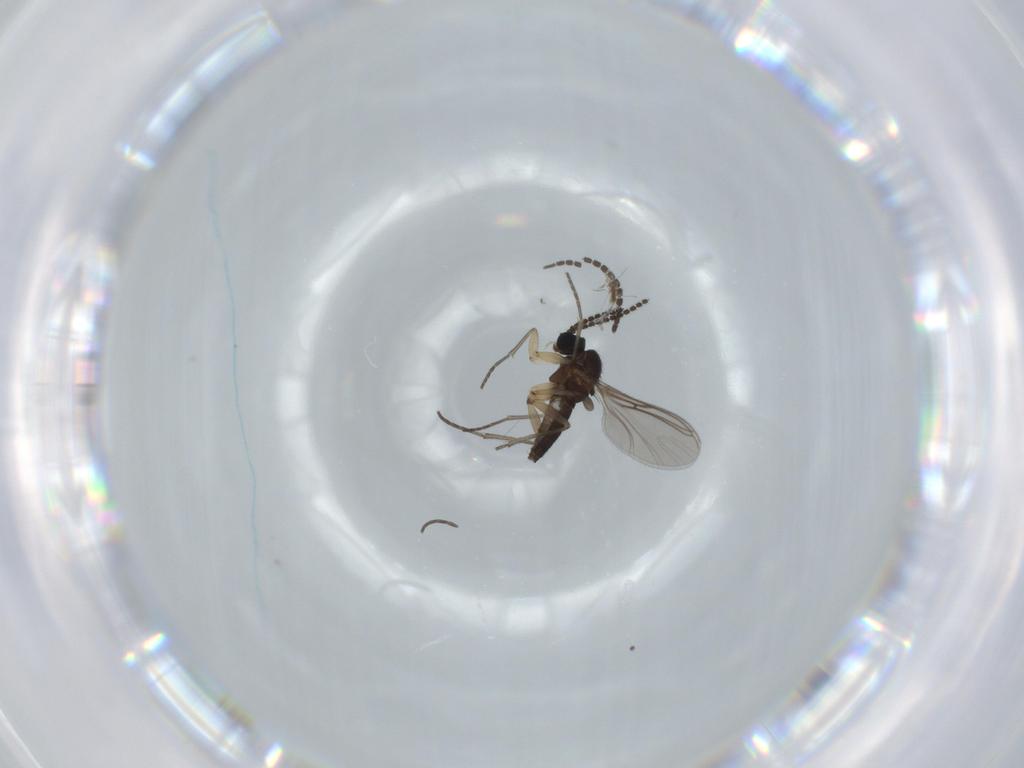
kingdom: Animalia
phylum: Arthropoda
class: Insecta
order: Diptera
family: Sciaridae
